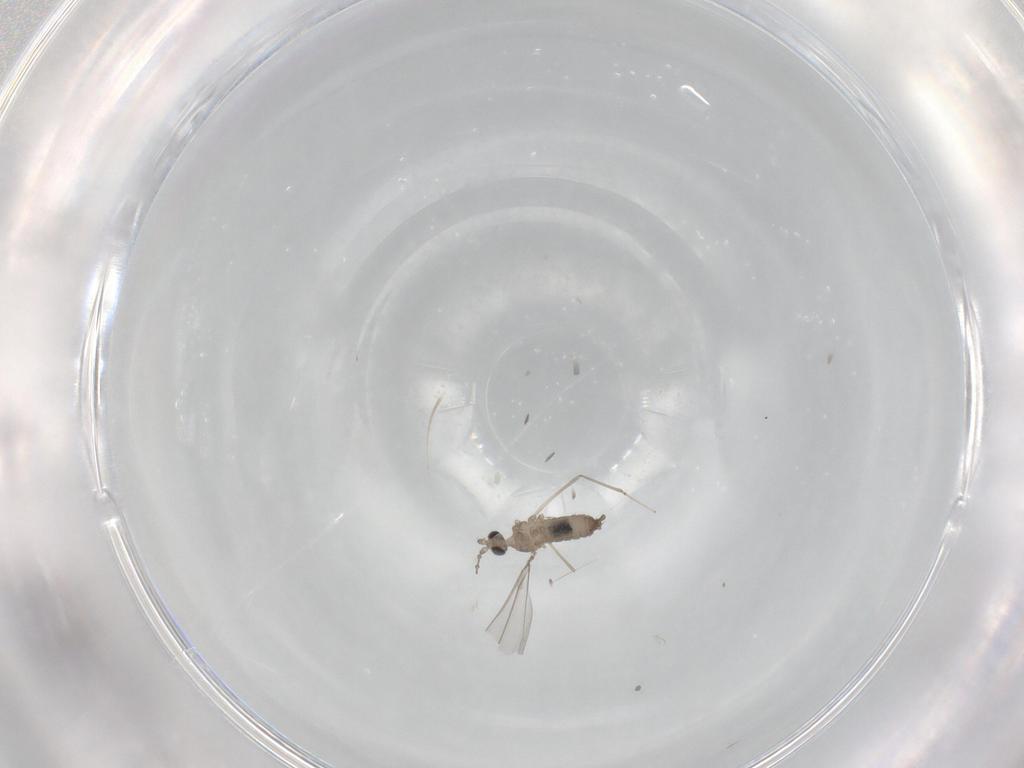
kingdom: Animalia
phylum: Arthropoda
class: Insecta
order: Diptera
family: Cecidomyiidae
